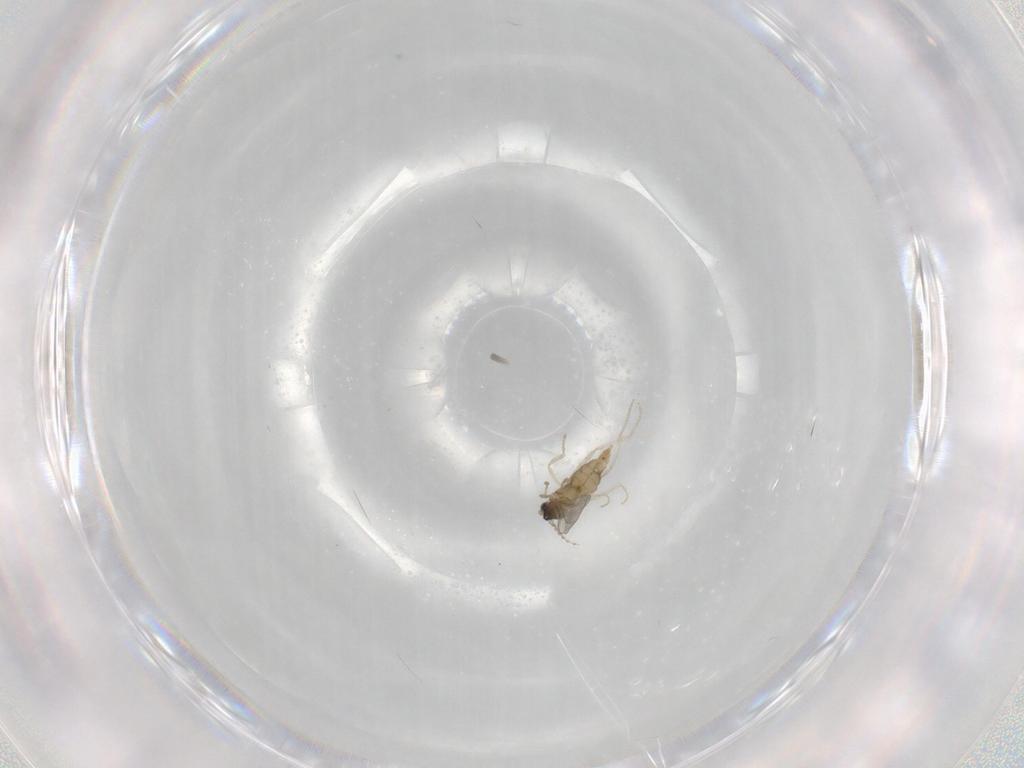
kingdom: Animalia
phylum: Arthropoda
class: Insecta
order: Diptera
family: Cecidomyiidae
